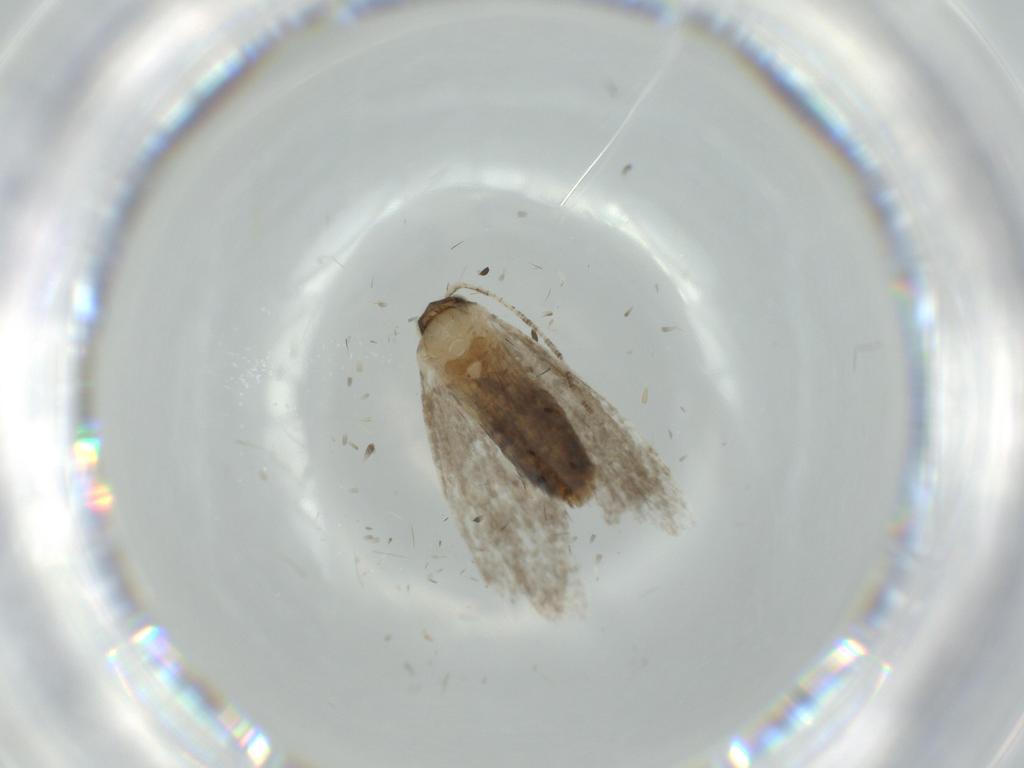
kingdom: Animalia
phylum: Arthropoda
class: Insecta
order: Lepidoptera
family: Tineidae
